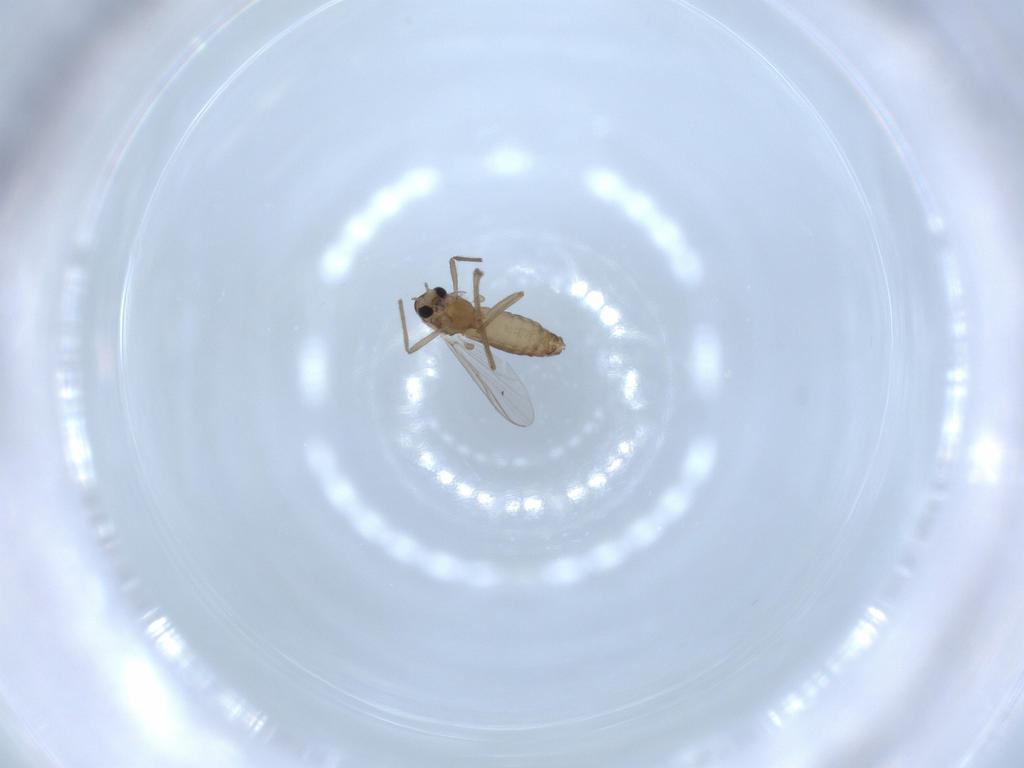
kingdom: Animalia
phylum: Arthropoda
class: Insecta
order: Diptera
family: Chironomidae
